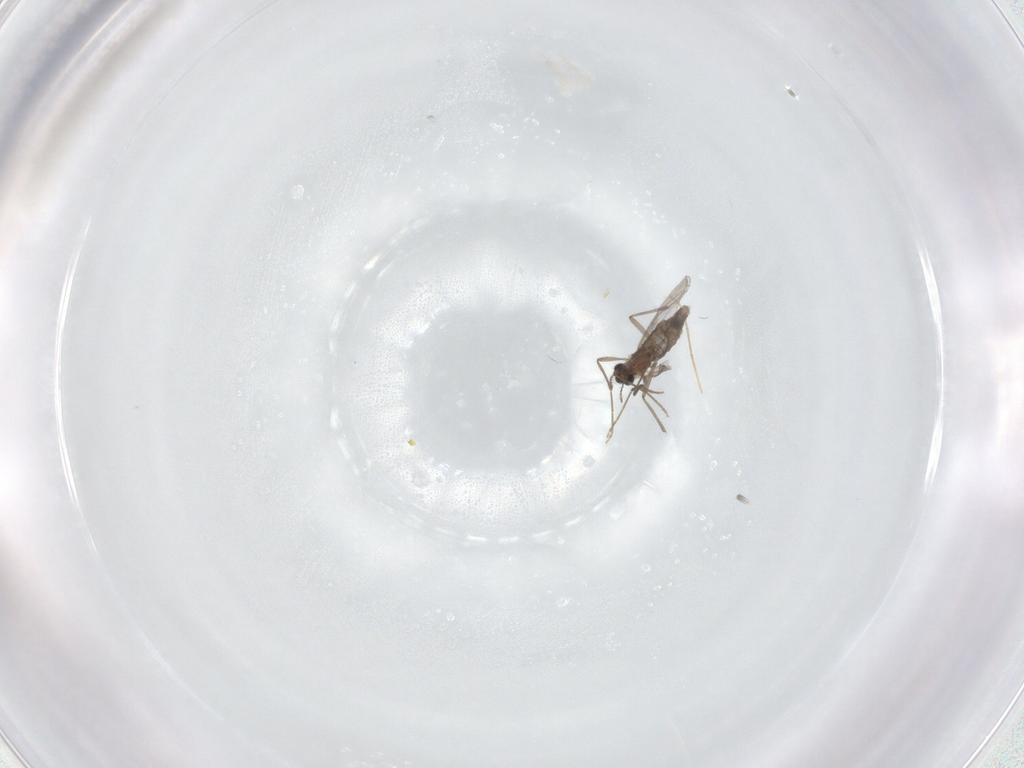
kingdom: Animalia
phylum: Arthropoda
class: Insecta
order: Diptera
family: Chironomidae
